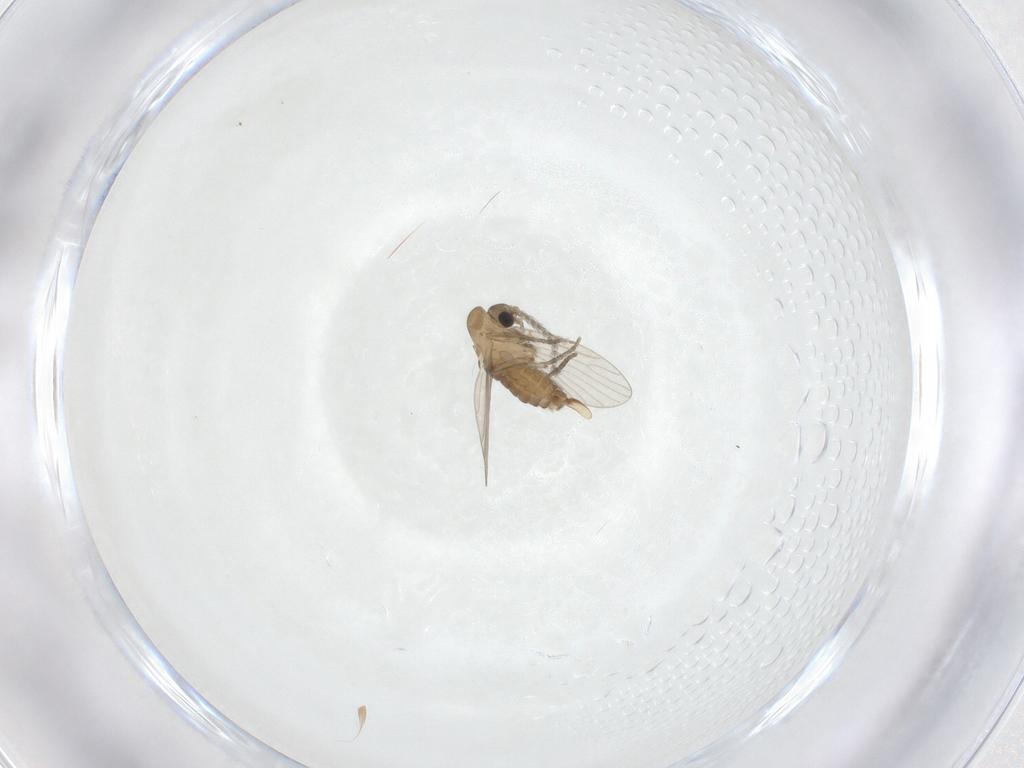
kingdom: Animalia
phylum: Arthropoda
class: Insecta
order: Diptera
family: Psychodidae
